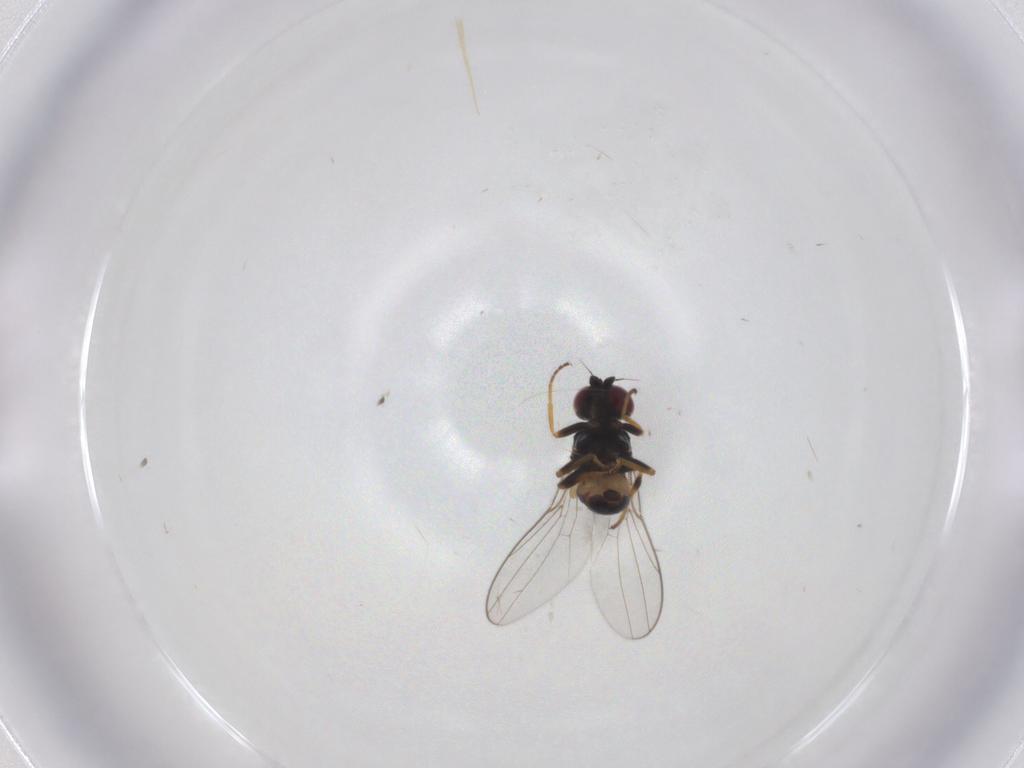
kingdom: Animalia
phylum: Arthropoda
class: Insecta
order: Diptera
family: Chloropidae
